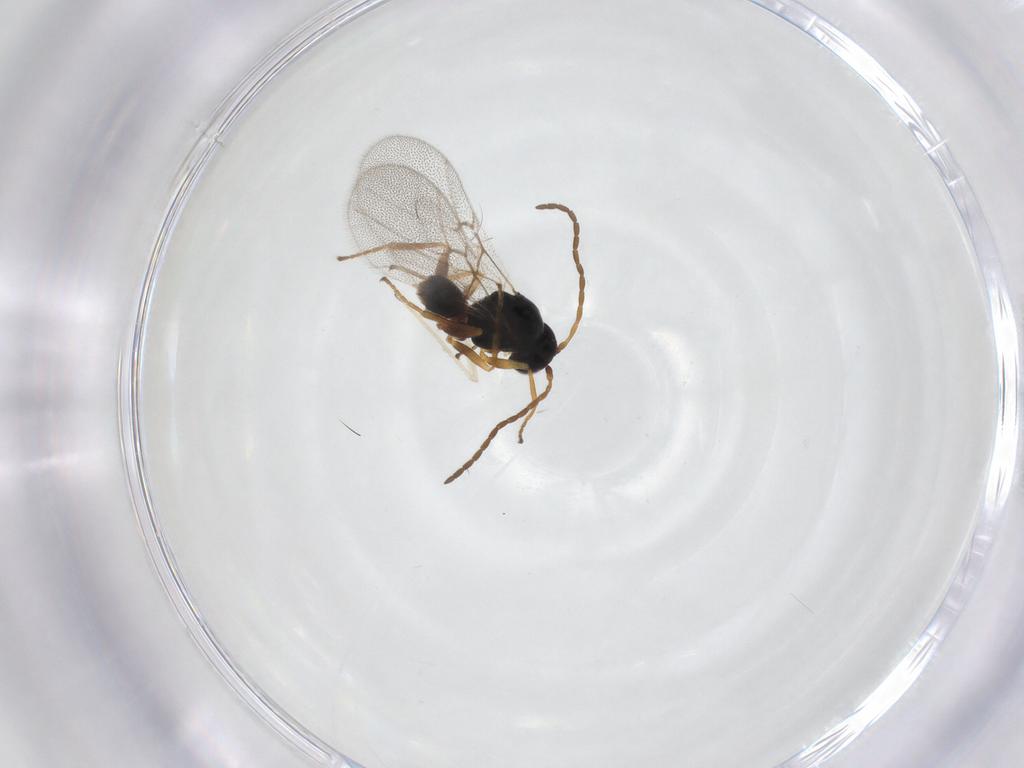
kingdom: Animalia
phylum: Arthropoda
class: Insecta
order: Hymenoptera
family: Cynipidae
